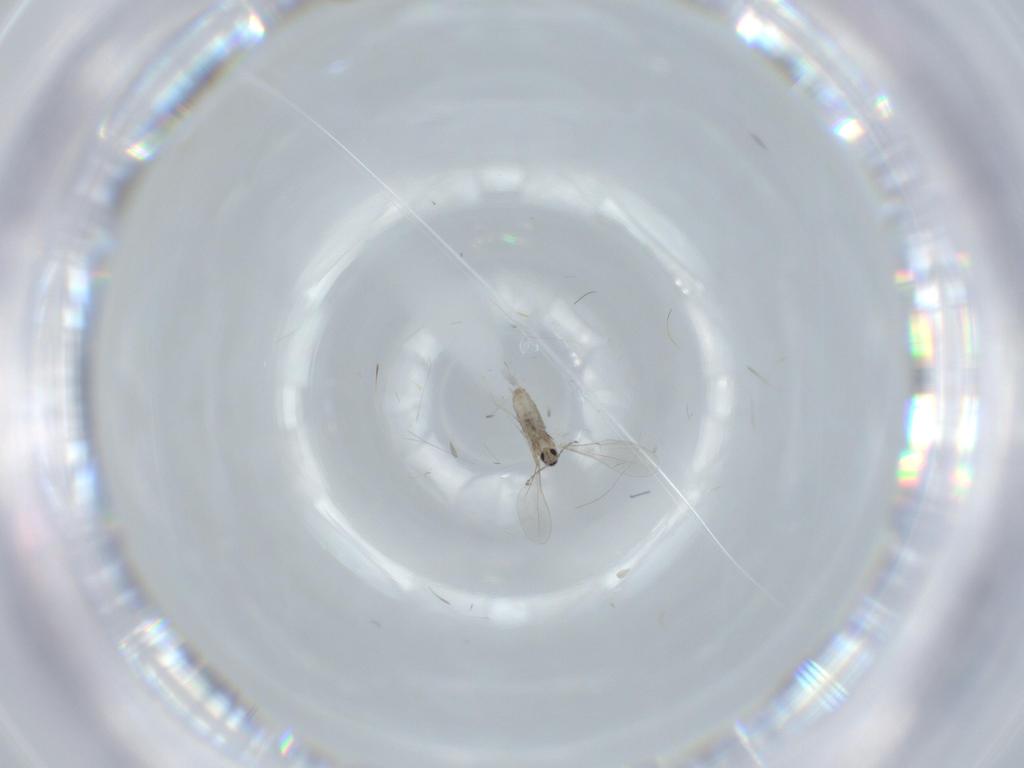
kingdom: Animalia
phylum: Arthropoda
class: Insecta
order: Diptera
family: Cecidomyiidae
